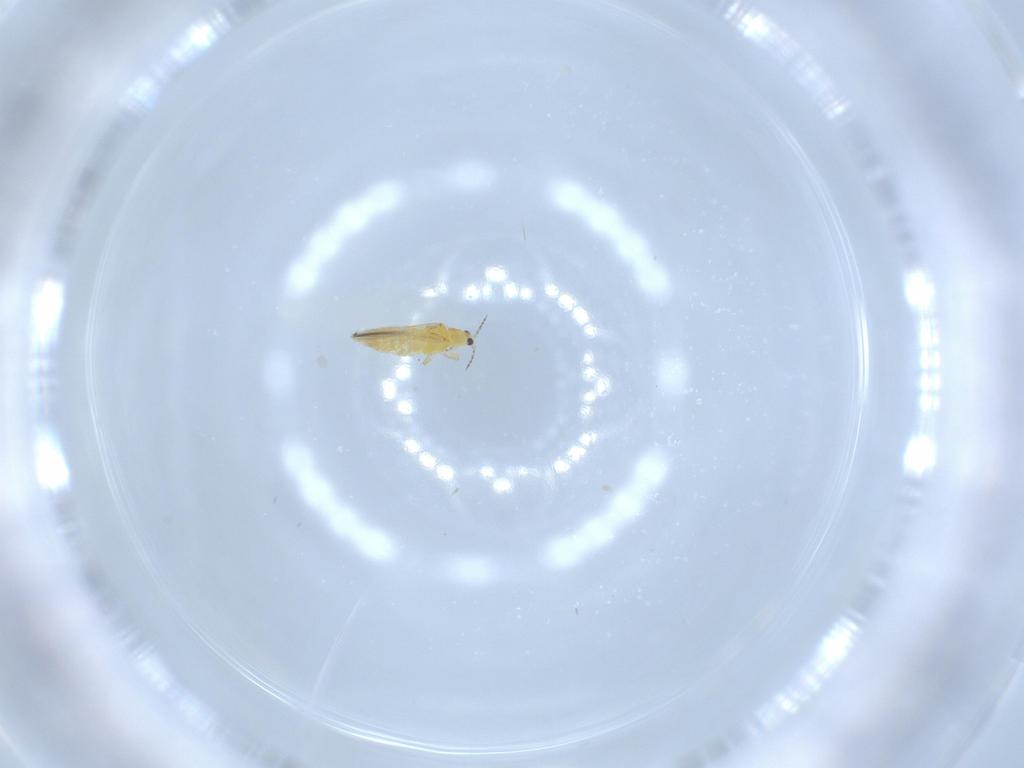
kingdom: Animalia
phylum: Arthropoda
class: Insecta
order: Thysanoptera
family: Thripidae
